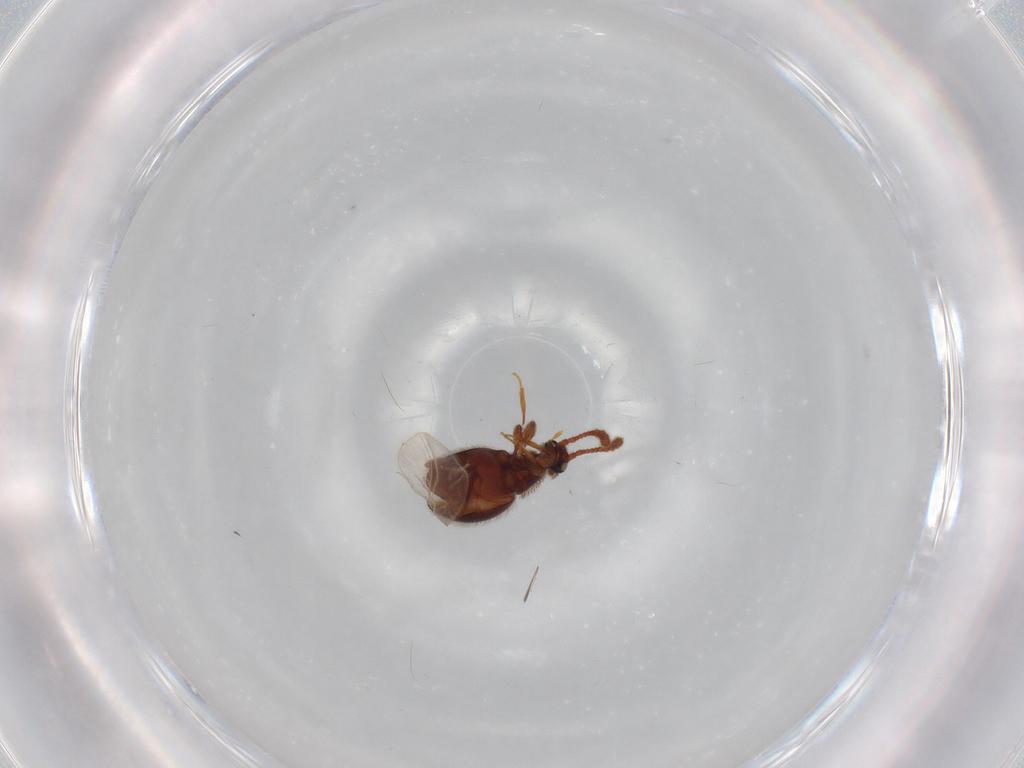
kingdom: Animalia
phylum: Arthropoda
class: Insecta
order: Coleoptera
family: Staphylinidae
